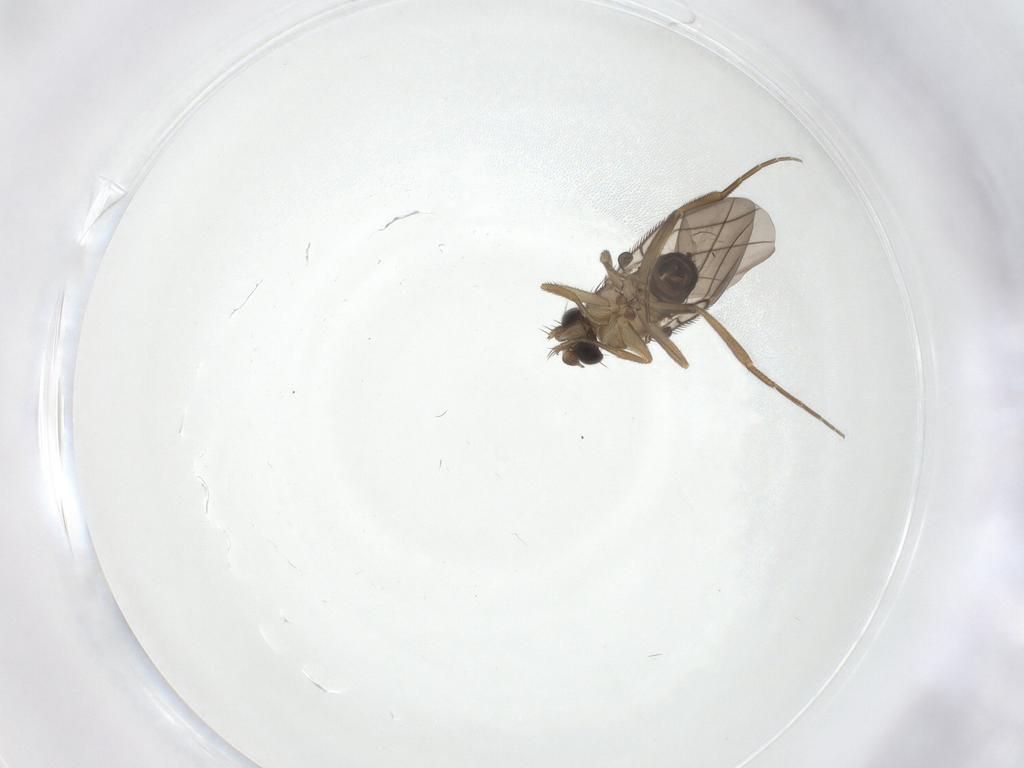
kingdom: Animalia
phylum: Arthropoda
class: Insecta
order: Diptera
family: Phoridae
